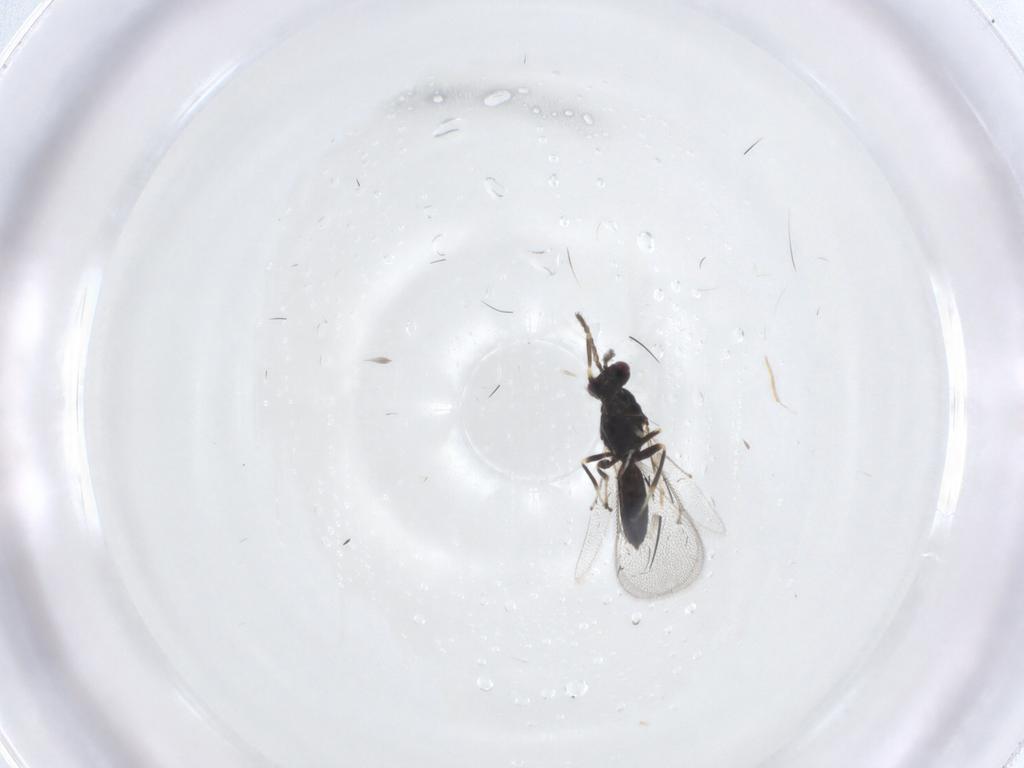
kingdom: Animalia
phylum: Arthropoda
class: Insecta
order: Hymenoptera
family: Ichneumonidae
